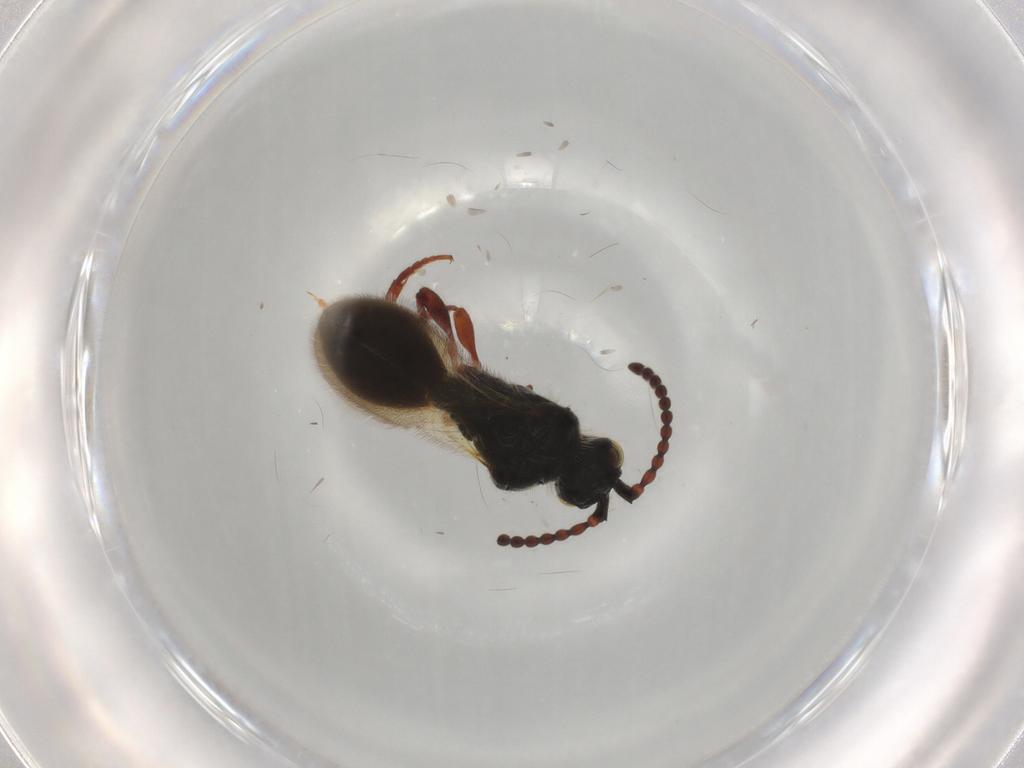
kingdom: Animalia
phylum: Arthropoda
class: Insecta
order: Hymenoptera
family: Diapriidae
